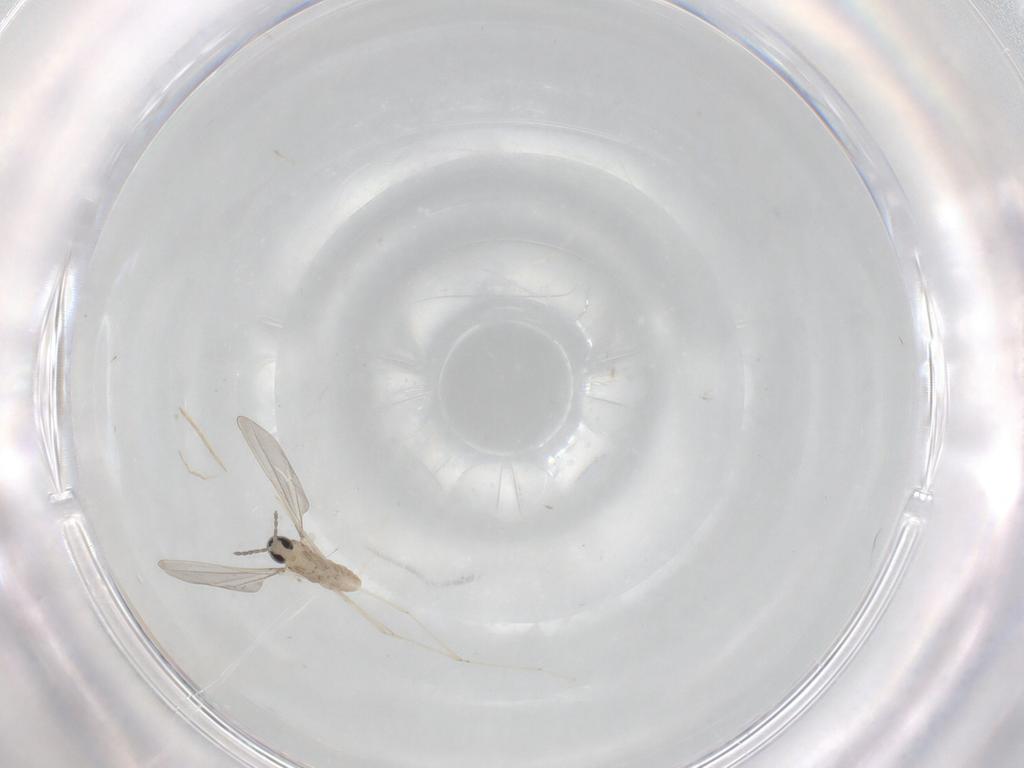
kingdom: Animalia
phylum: Arthropoda
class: Insecta
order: Diptera
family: Cecidomyiidae
